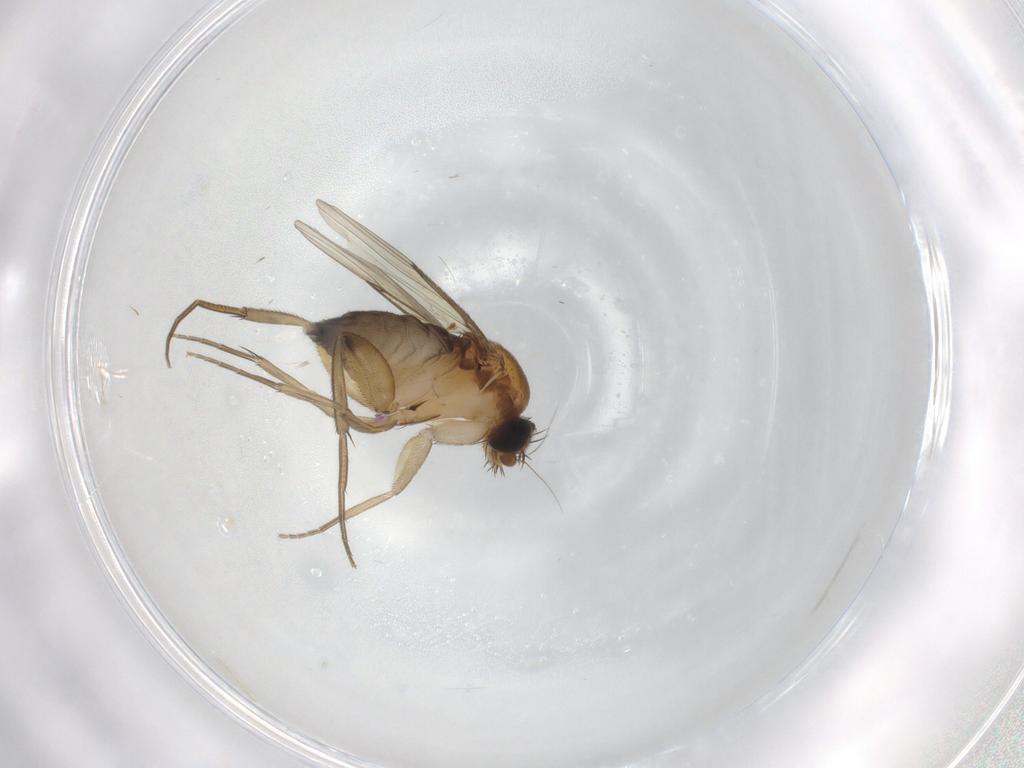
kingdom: Animalia
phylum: Arthropoda
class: Insecta
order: Diptera
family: Phoridae
